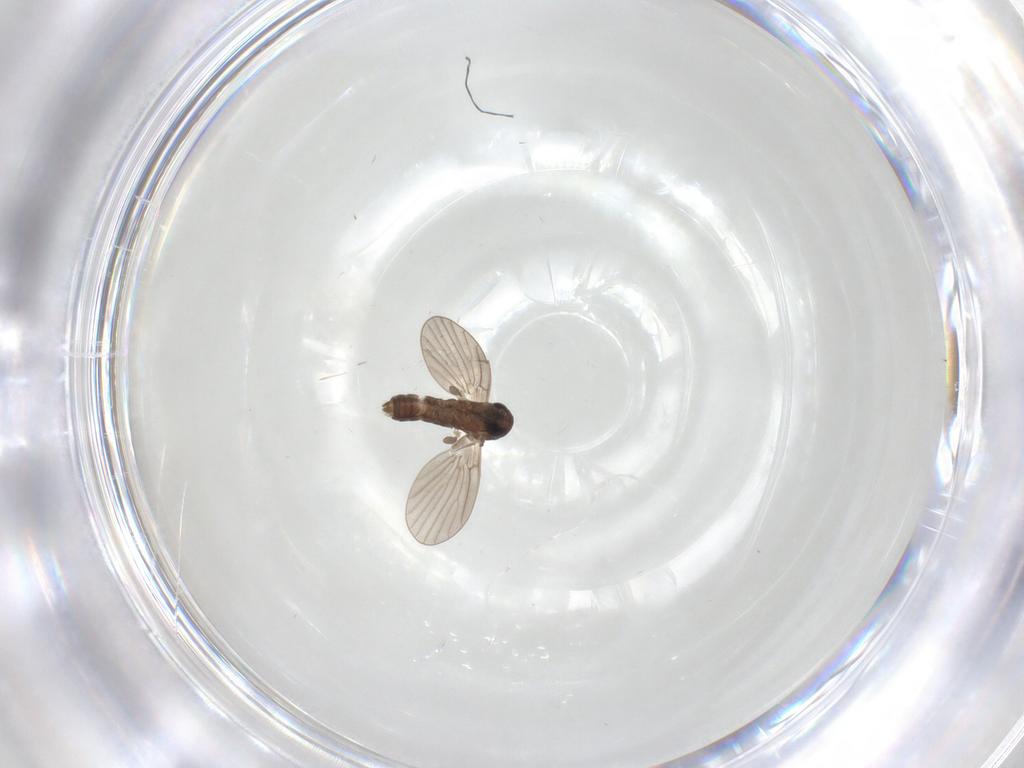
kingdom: Animalia
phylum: Arthropoda
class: Insecta
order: Diptera
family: Psychodidae
